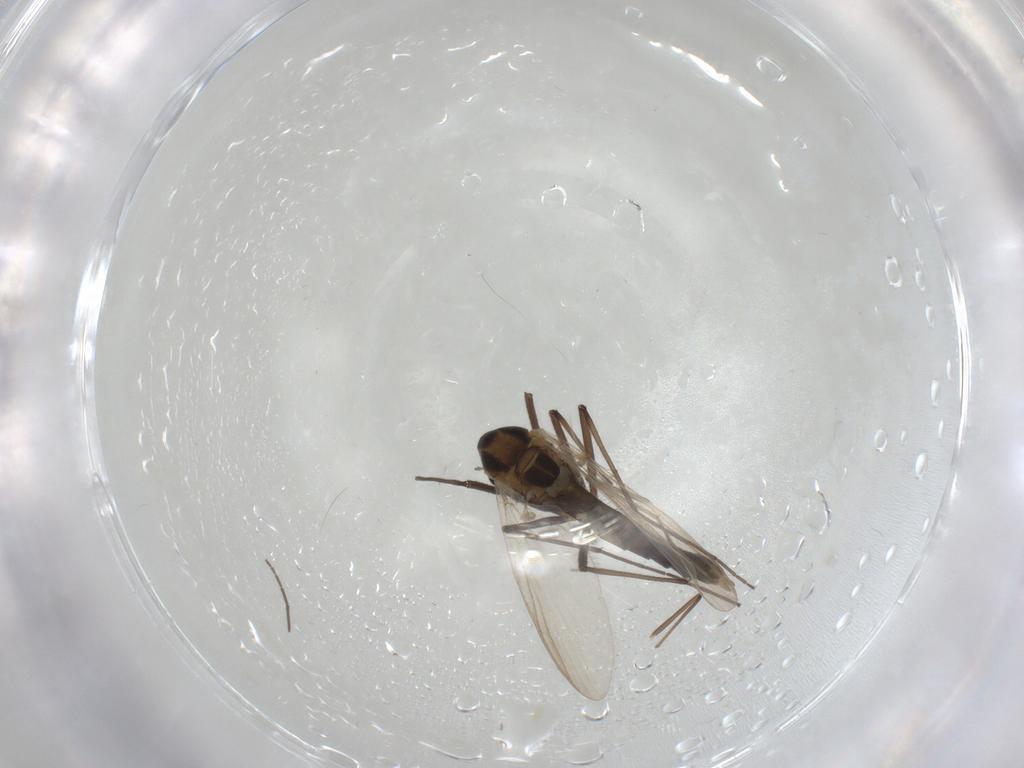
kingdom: Animalia
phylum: Arthropoda
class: Insecta
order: Diptera
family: Chironomidae
